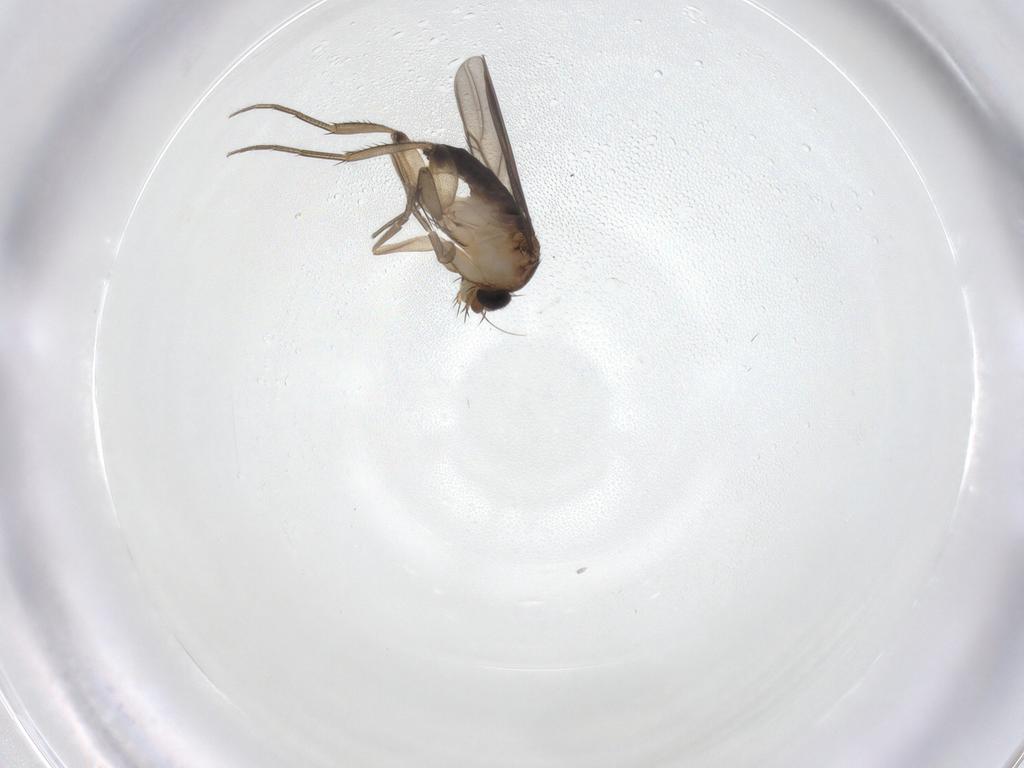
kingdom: Animalia
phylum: Arthropoda
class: Insecta
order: Diptera
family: Phoridae
